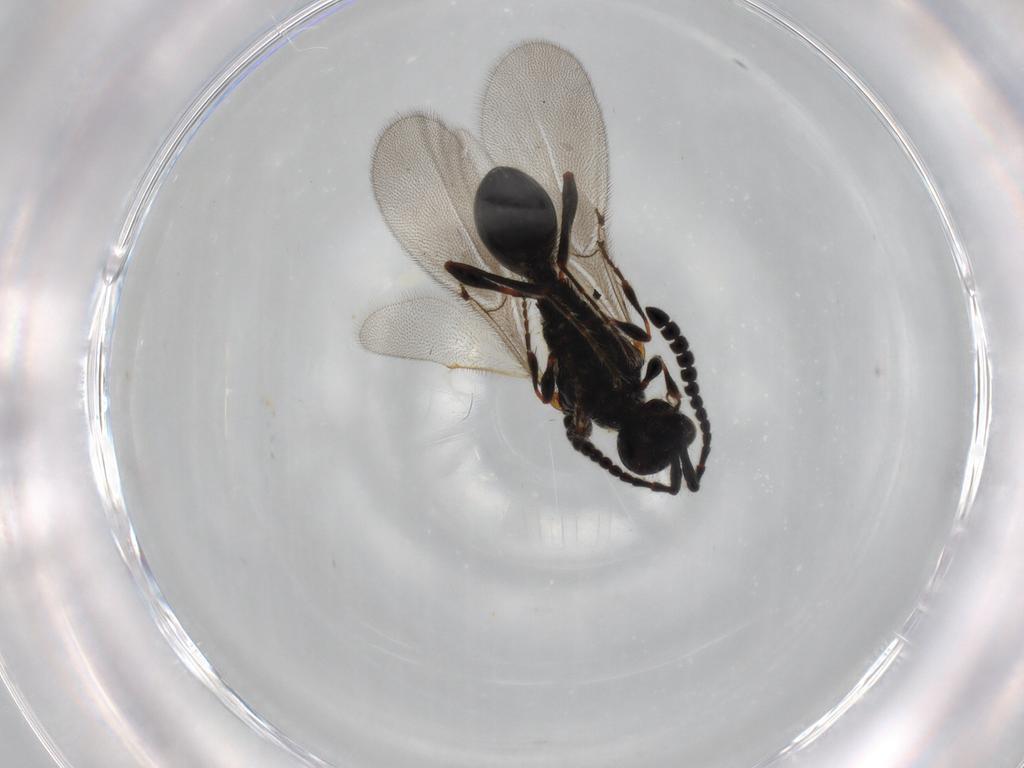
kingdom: Animalia
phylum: Arthropoda
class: Insecta
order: Hymenoptera
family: Diapriidae
